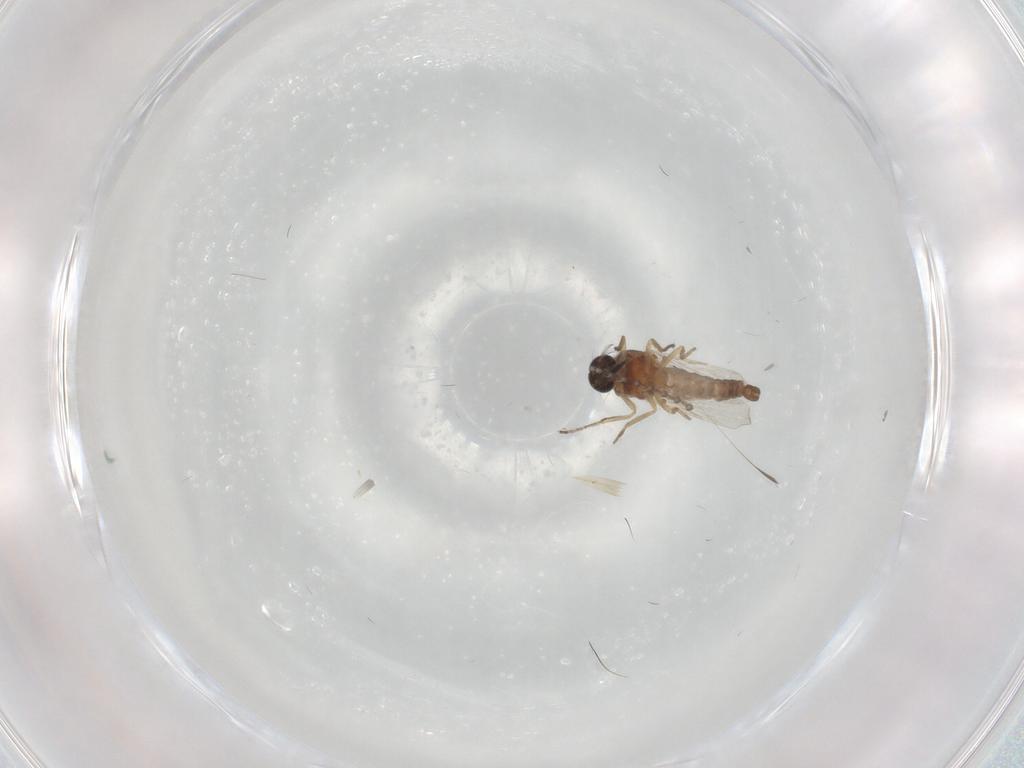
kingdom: Animalia
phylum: Arthropoda
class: Insecta
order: Diptera
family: Ceratopogonidae
